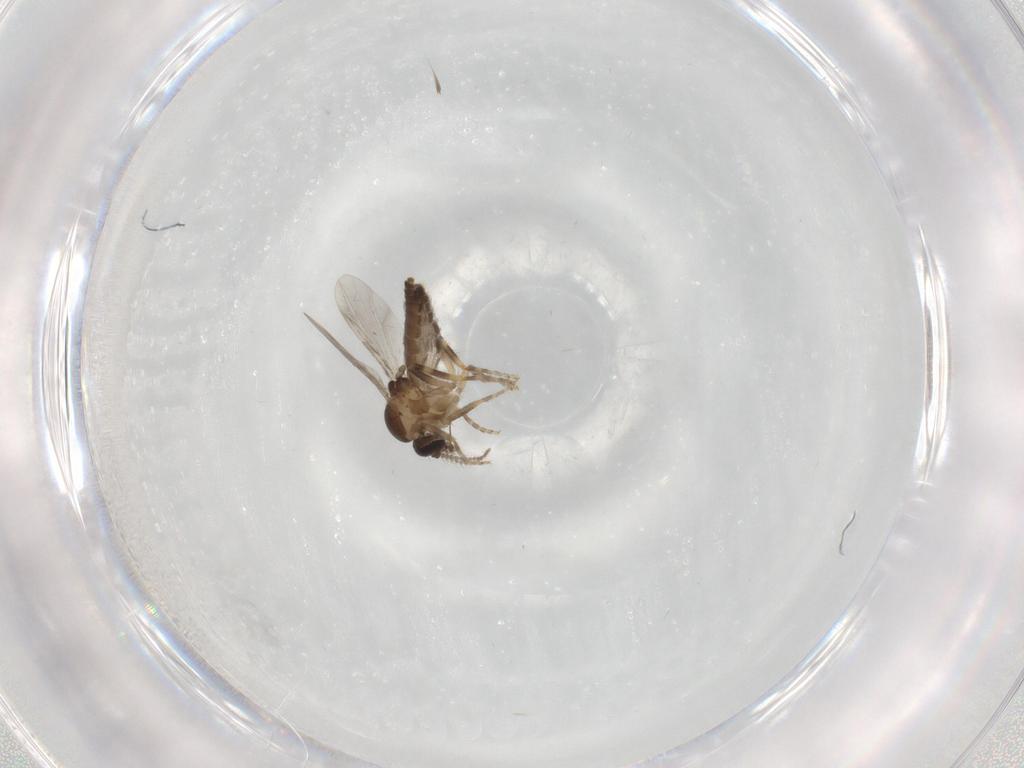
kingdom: Animalia
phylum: Arthropoda
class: Insecta
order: Diptera
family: Ceratopogonidae
